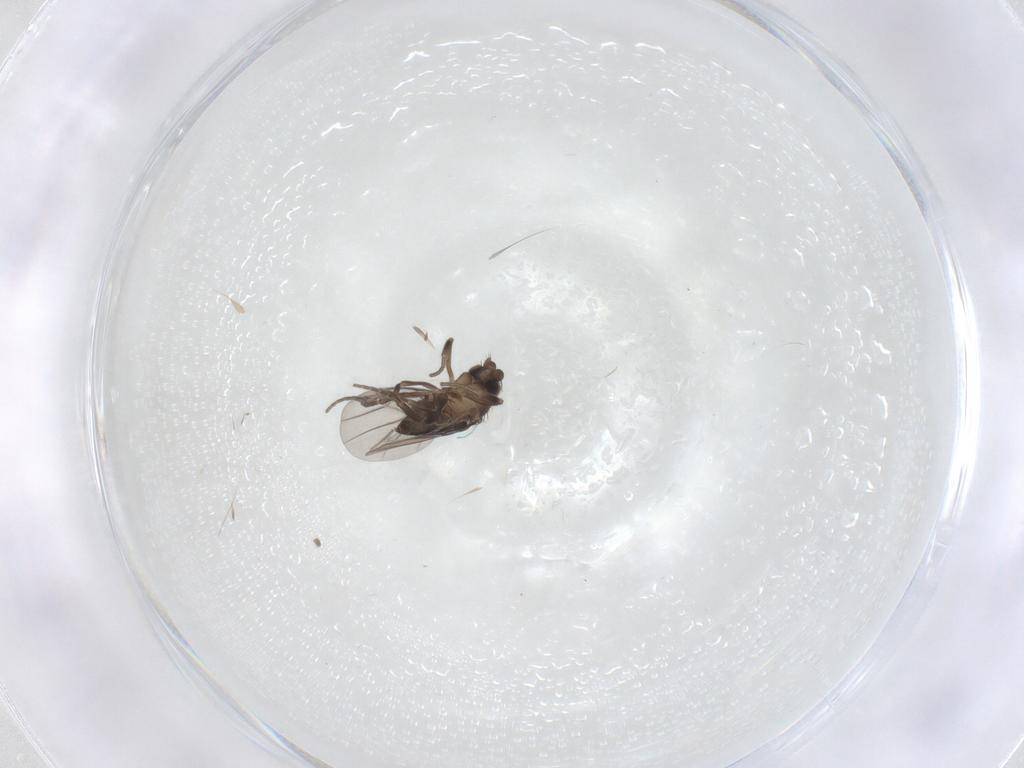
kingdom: Animalia
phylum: Arthropoda
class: Insecta
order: Diptera
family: Cecidomyiidae
